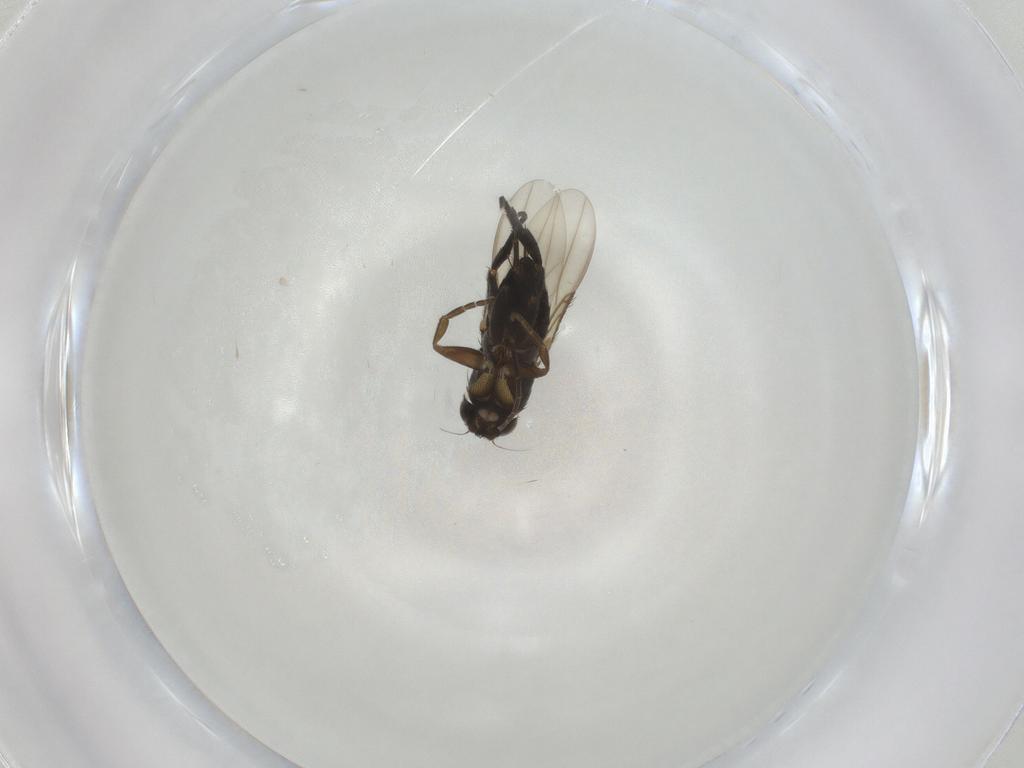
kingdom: Animalia
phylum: Arthropoda
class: Insecta
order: Diptera
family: Phoridae
